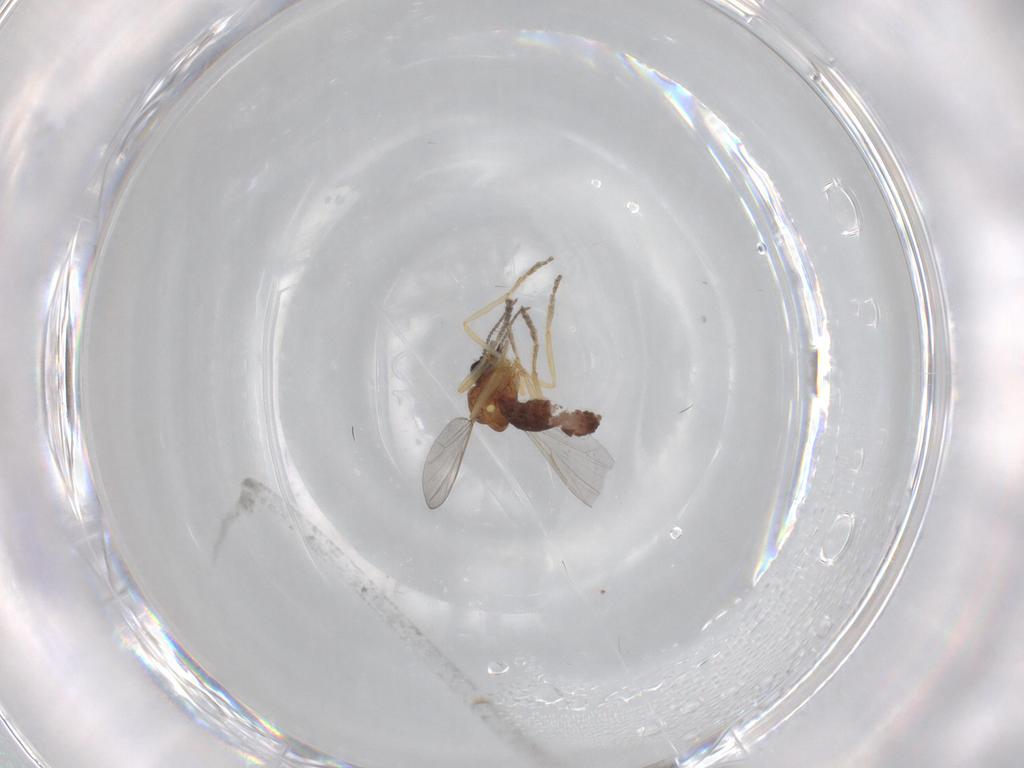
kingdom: Animalia
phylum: Arthropoda
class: Insecta
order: Diptera
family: Ceratopogonidae
